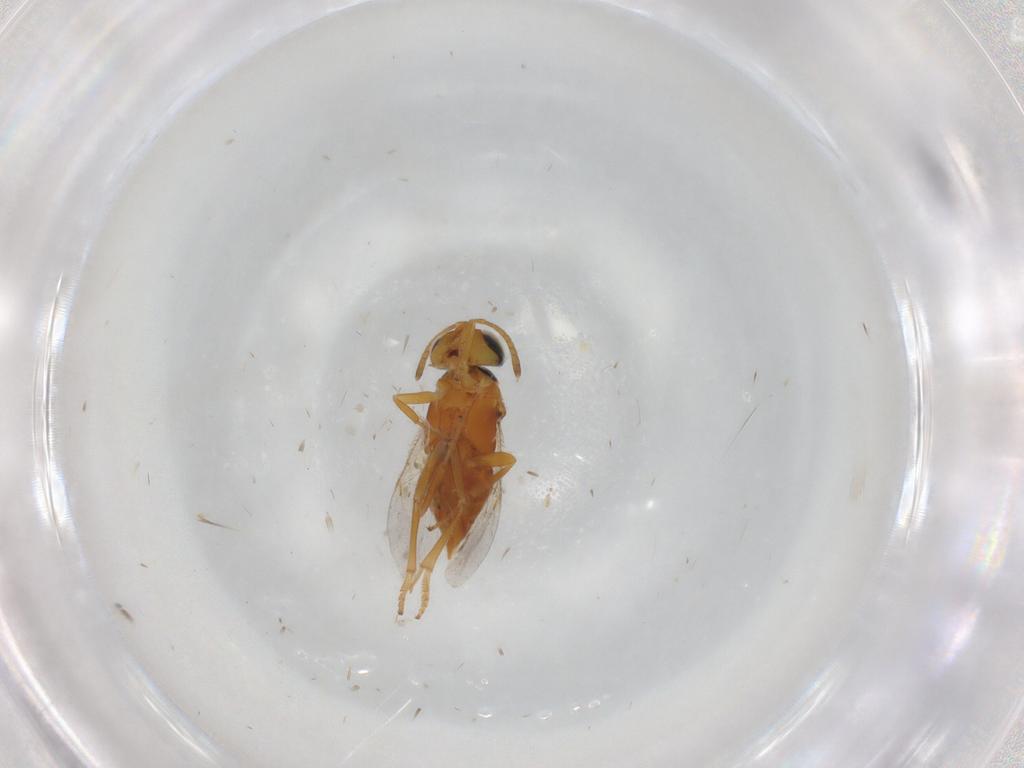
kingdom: Animalia
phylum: Arthropoda
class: Insecta
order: Hymenoptera
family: Encyrtidae
